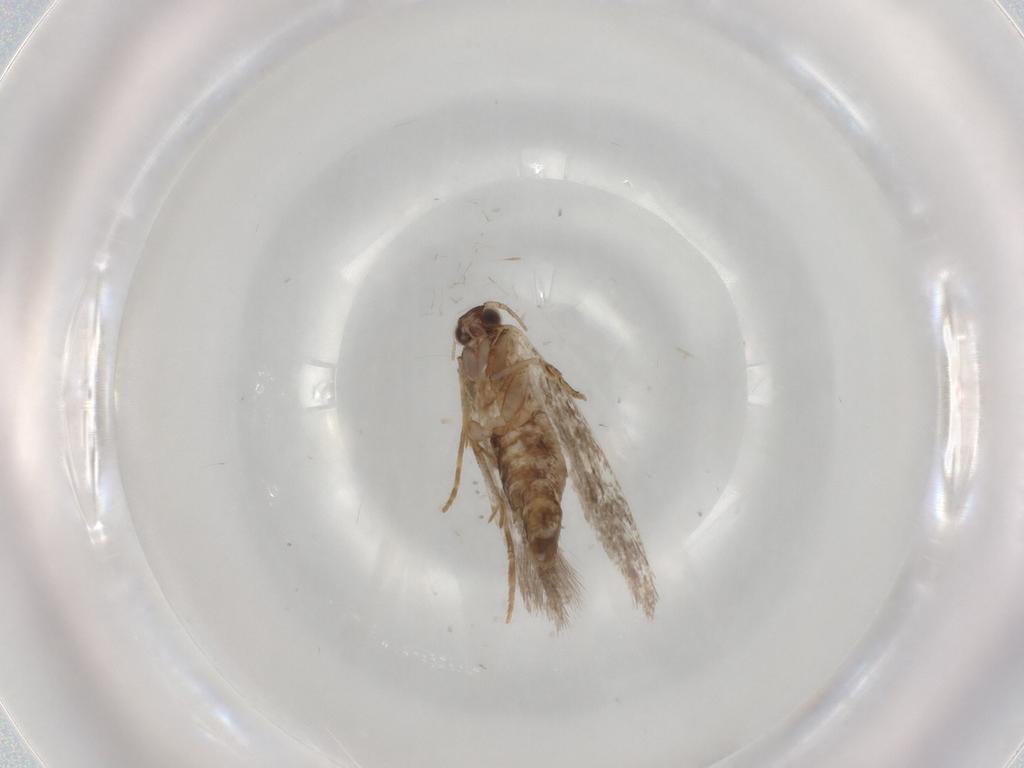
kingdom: Animalia
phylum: Arthropoda
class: Insecta
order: Lepidoptera
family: Tineidae
